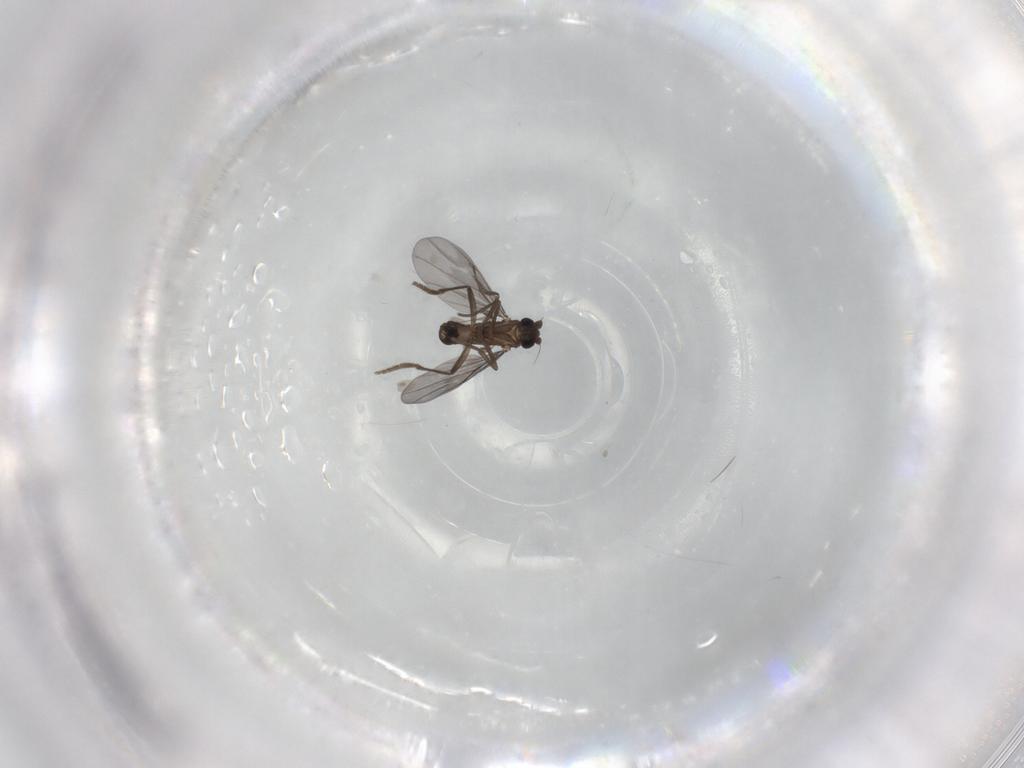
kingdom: Animalia
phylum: Arthropoda
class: Insecta
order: Diptera
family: Phoridae
